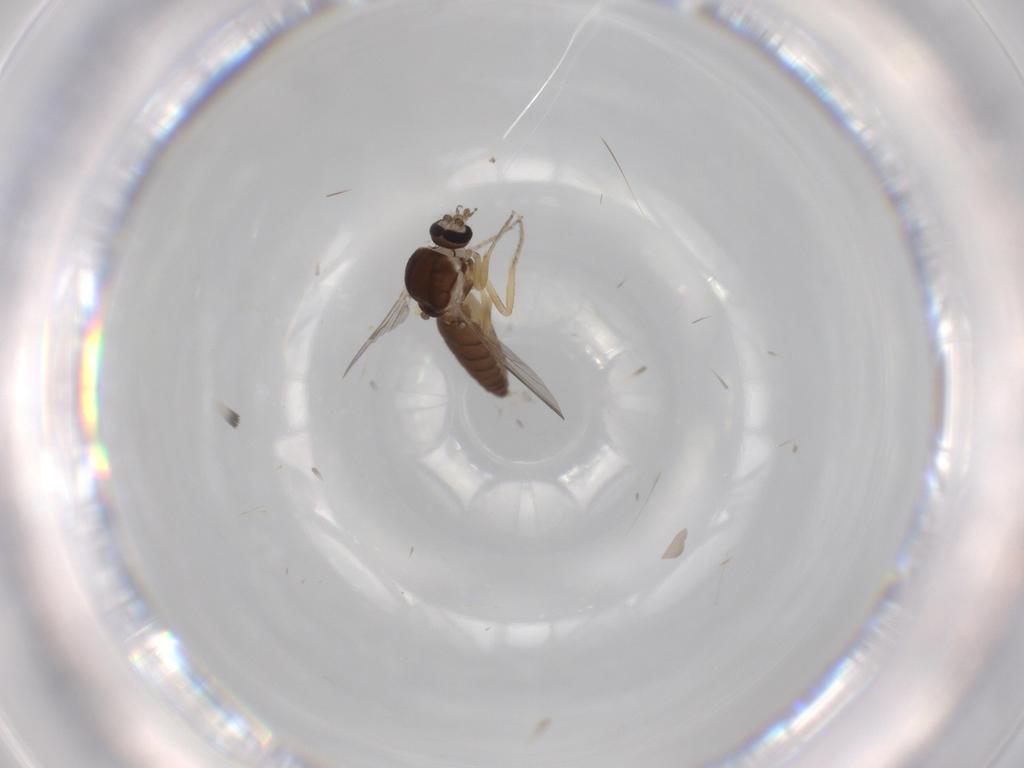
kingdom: Animalia
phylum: Arthropoda
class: Insecta
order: Diptera
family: Ceratopogonidae
